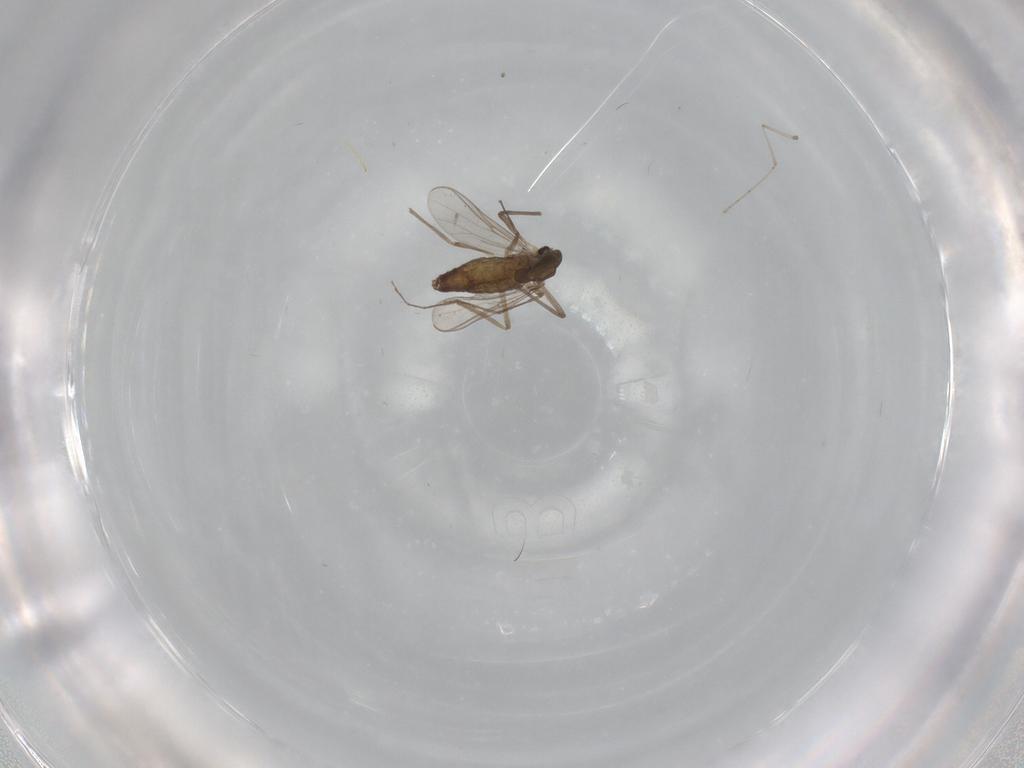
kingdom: Animalia
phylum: Arthropoda
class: Insecta
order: Diptera
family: Chironomidae
